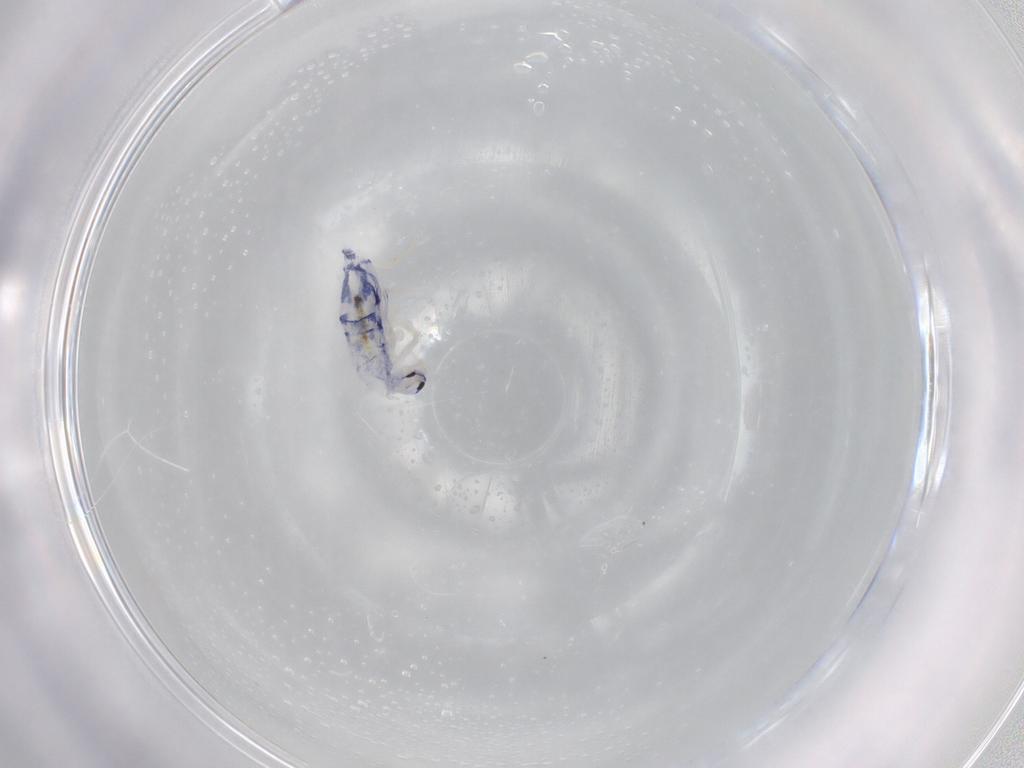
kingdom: Animalia
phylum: Arthropoda
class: Collembola
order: Entomobryomorpha
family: Entomobryidae
